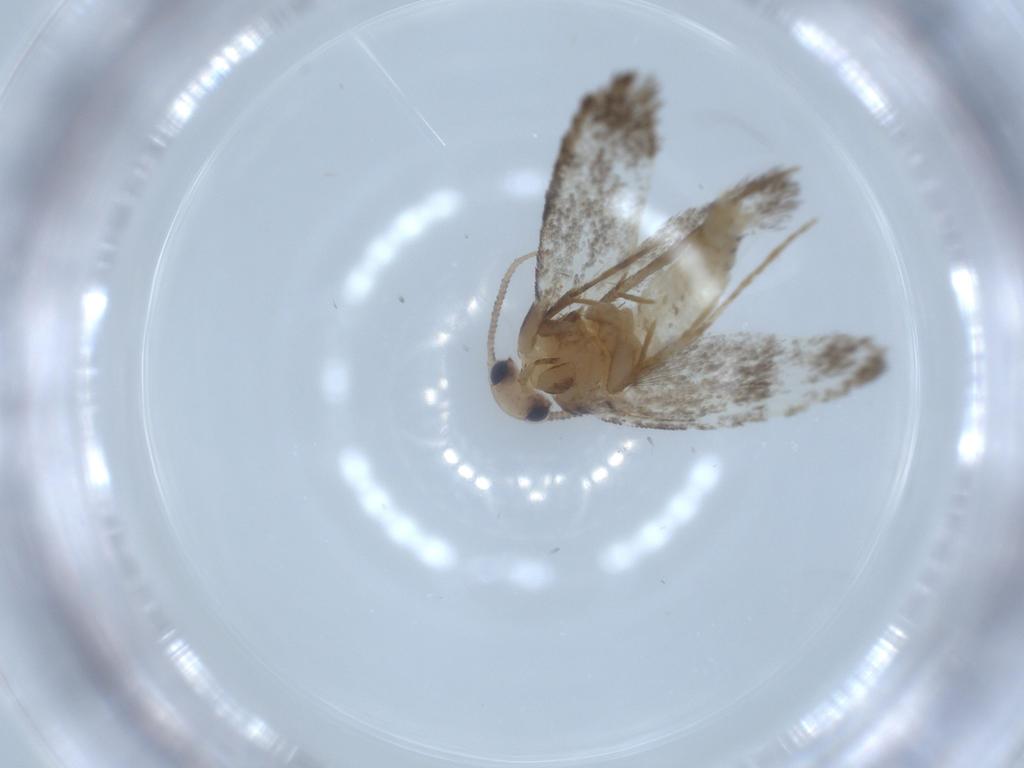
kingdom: Animalia
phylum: Arthropoda
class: Insecta
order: Lepidoptera
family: Tineidae
